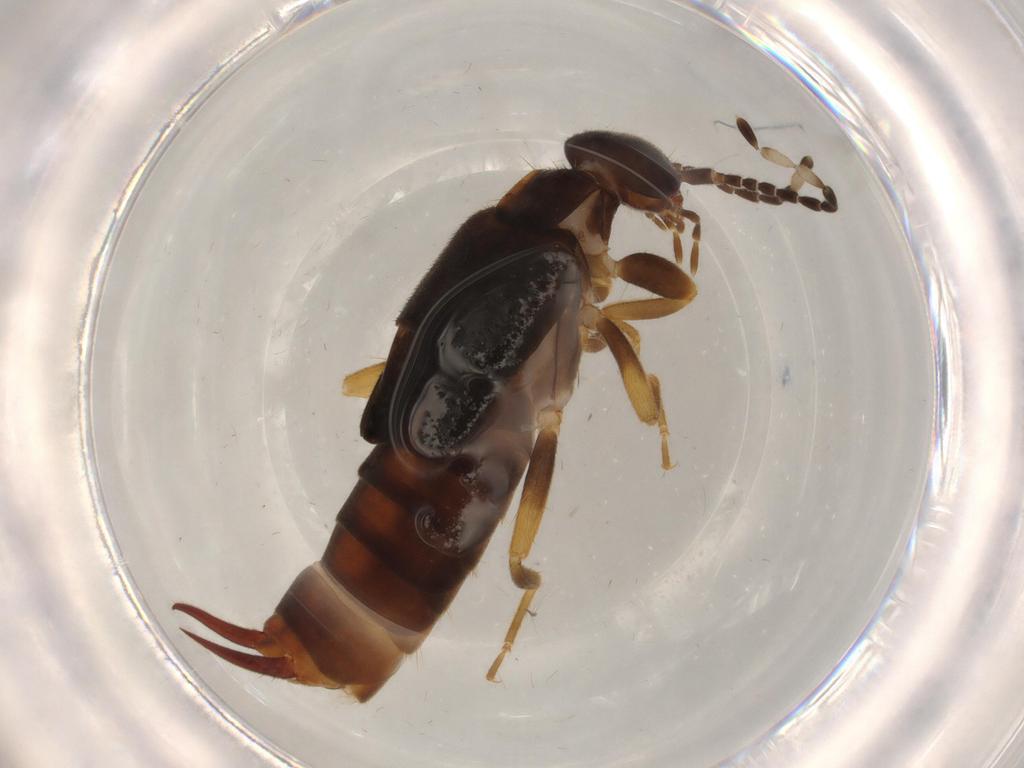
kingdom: Animalia
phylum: Arthropoda
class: Insecta
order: Dermaptera
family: Anisolabididae
